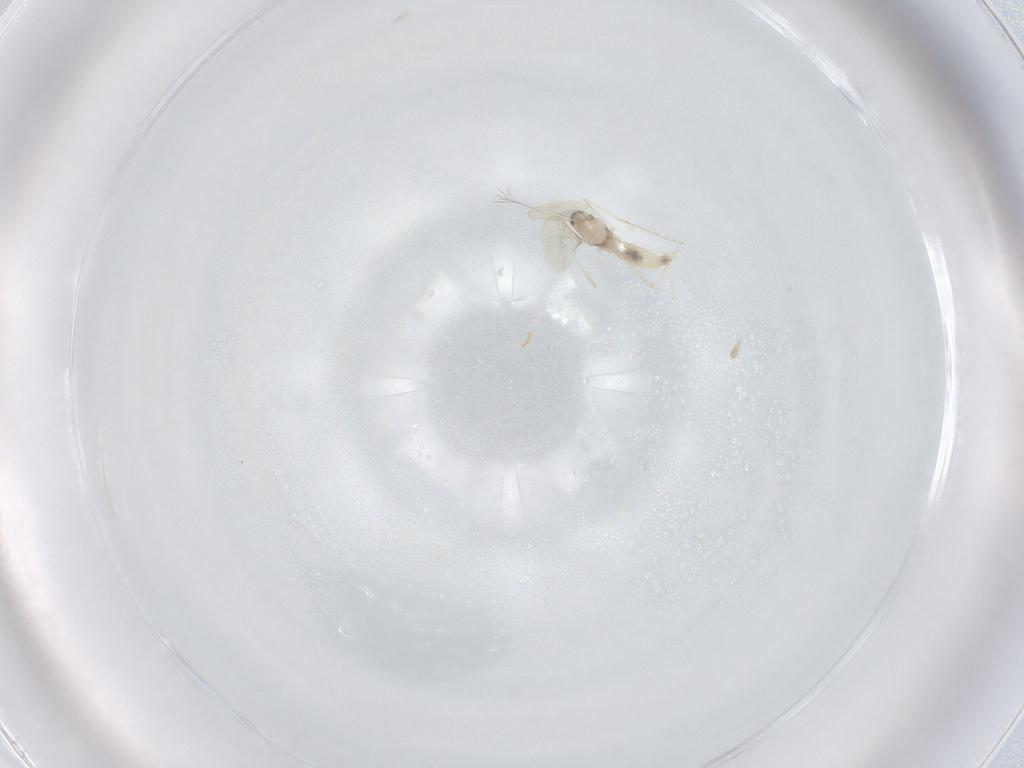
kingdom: Animalia
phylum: Arthropoda
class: Insecta
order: Diptera
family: Cecidomyiidae
